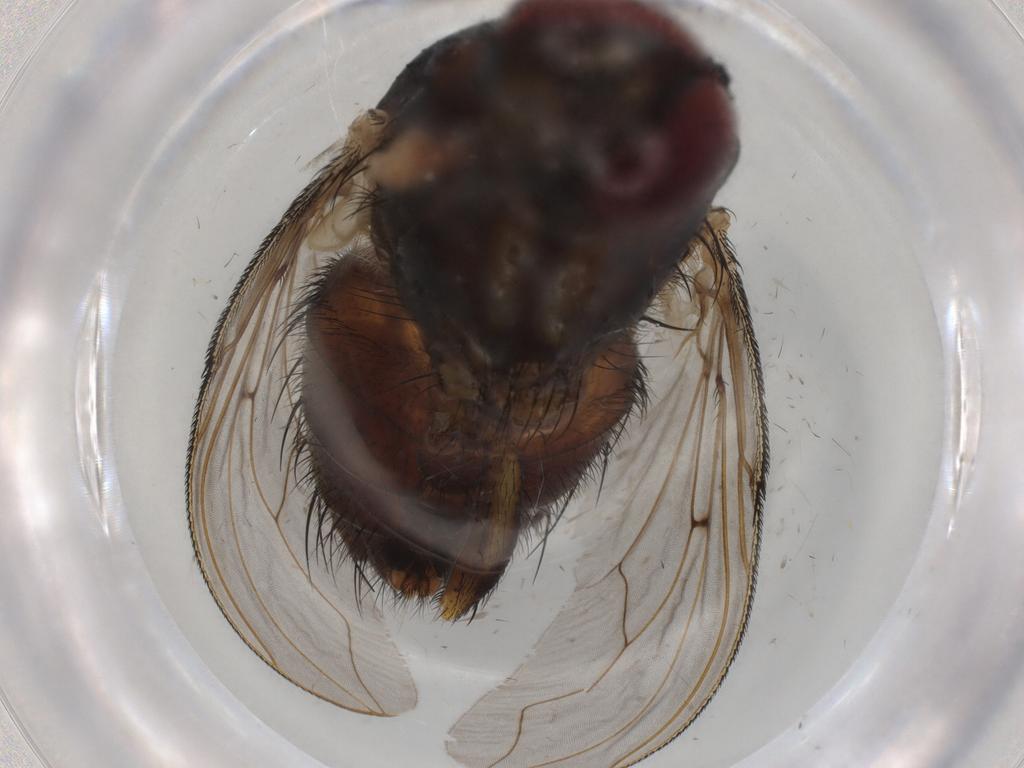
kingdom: Animalia
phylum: Arthropoda
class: Insecta
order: Diptera
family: Tachinidae
